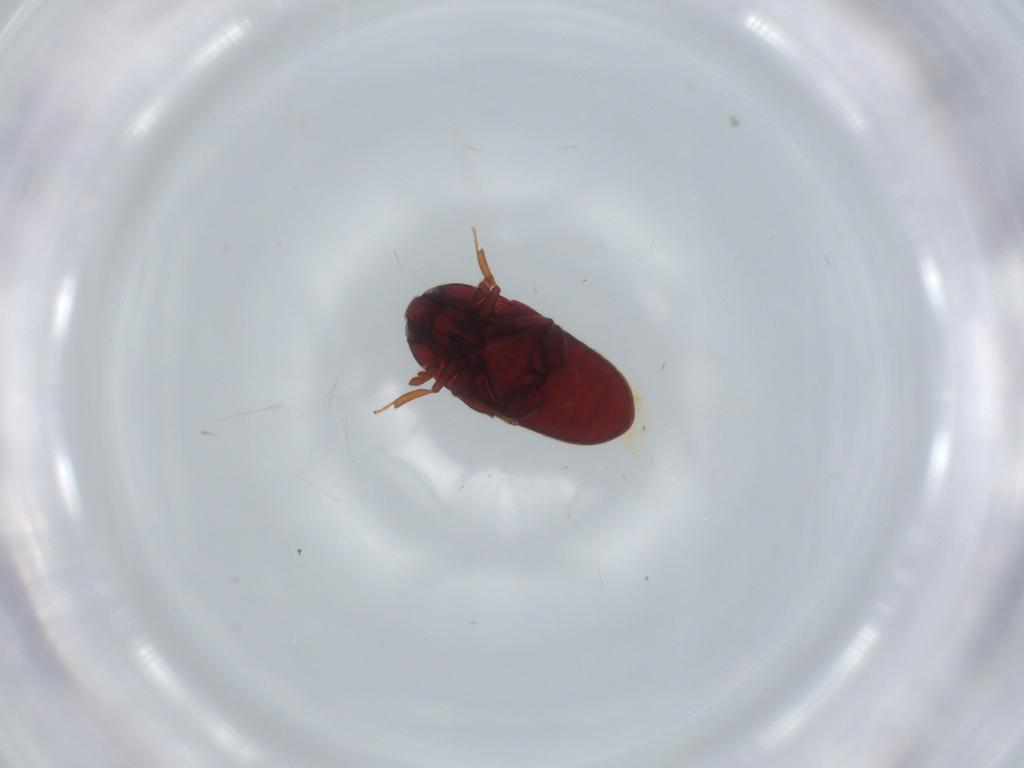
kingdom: Animalia
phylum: Arthropoda
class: Insecta
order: Coleoptera
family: Throscidae
